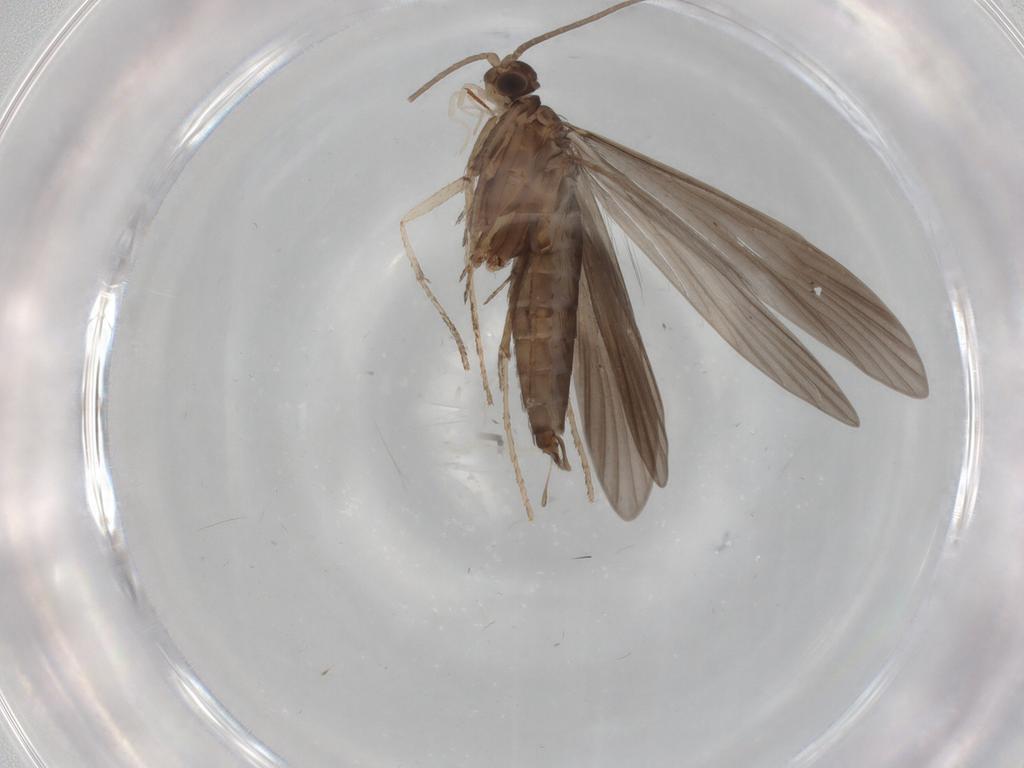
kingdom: Animalia
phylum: Arthropoda
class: Insecta
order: Trichoptera
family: Xiphocentronidae
